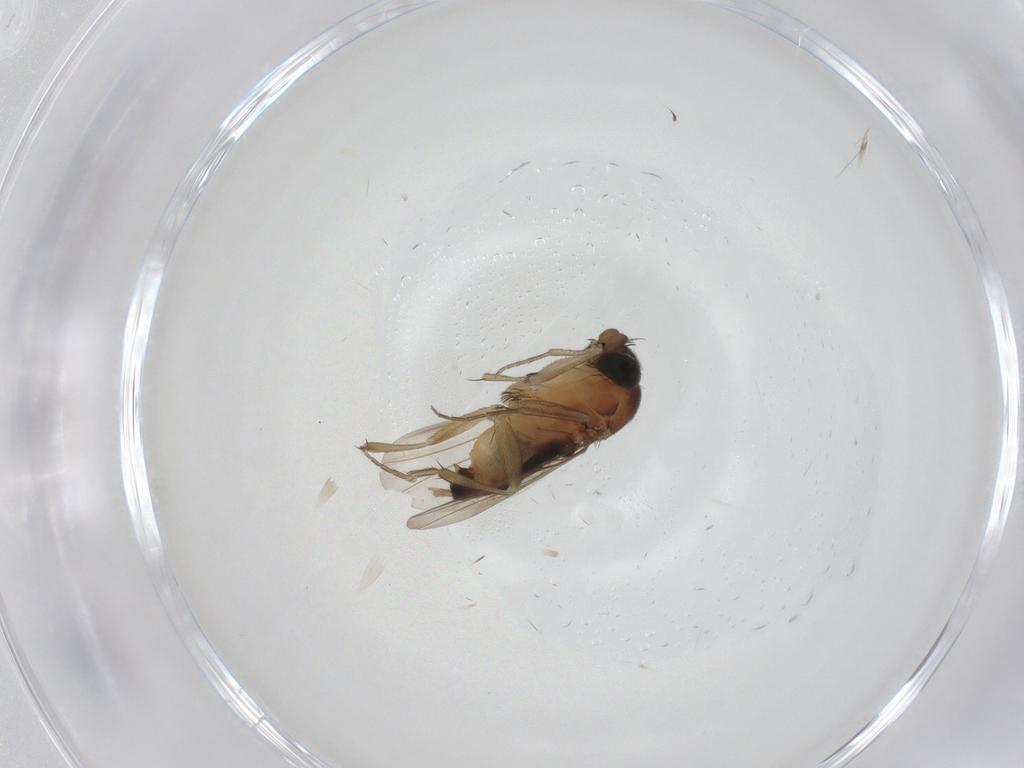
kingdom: Animalia
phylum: Arthropoda
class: Insecta
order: Diptera
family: Phoridae
